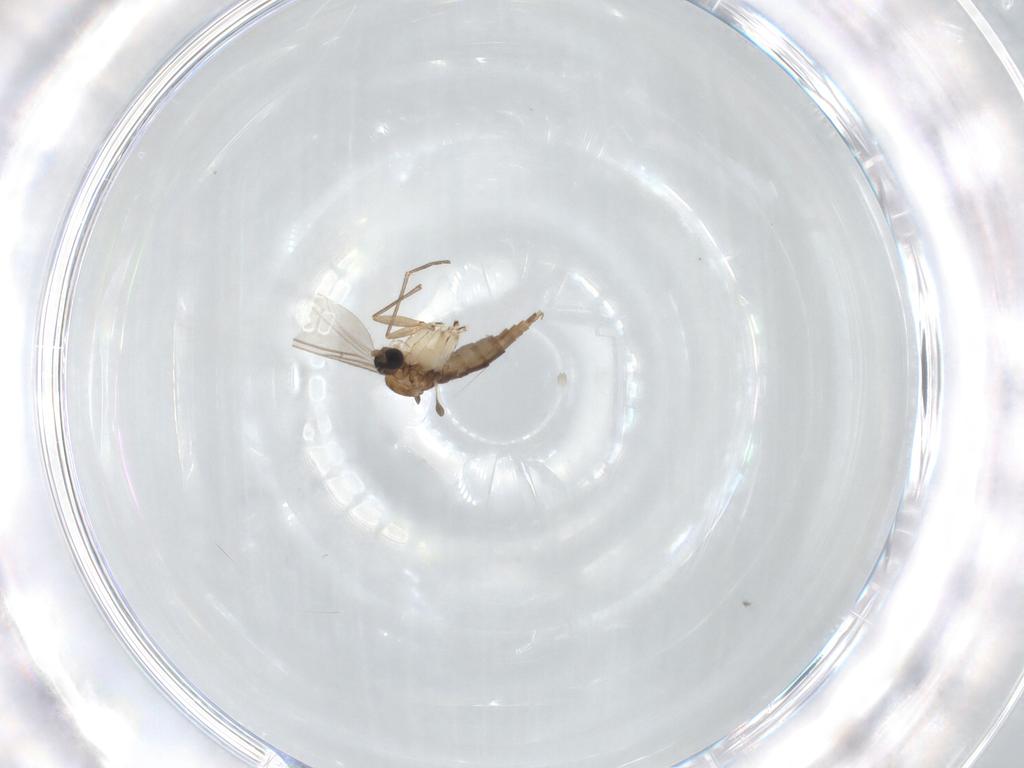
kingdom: Animalia
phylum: Arthropoda
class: Insecta
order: Diptera
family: Sciaridae
